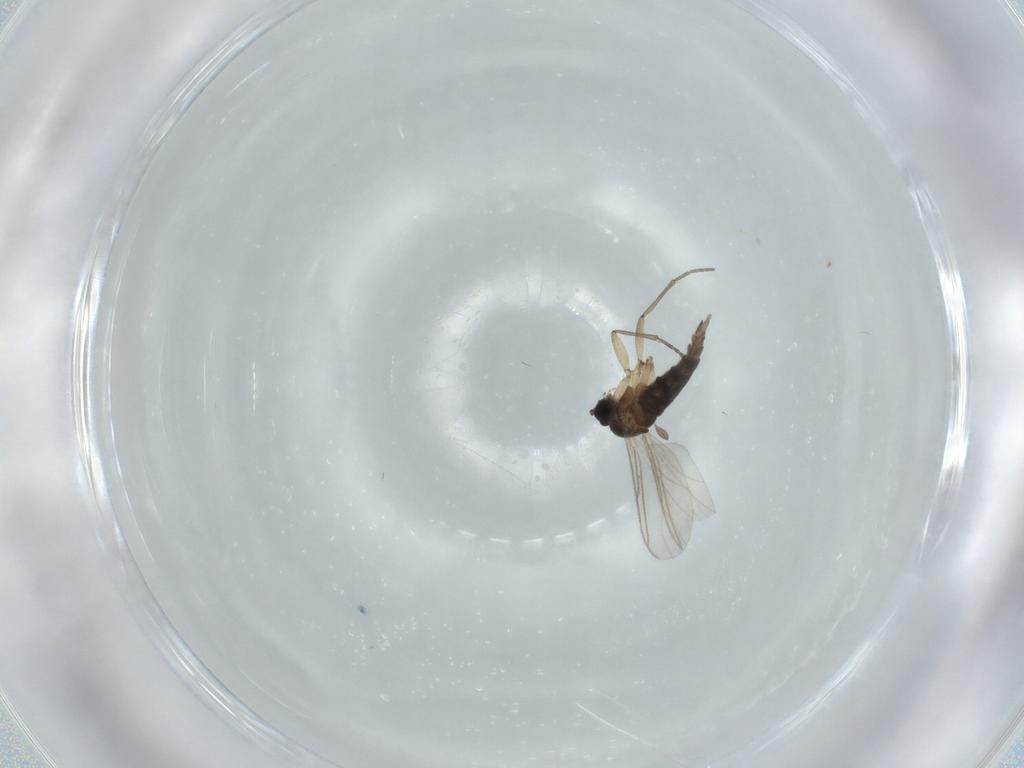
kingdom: Animalia
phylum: Arthropoda
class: Insecta
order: Diptera
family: Sciaridae
